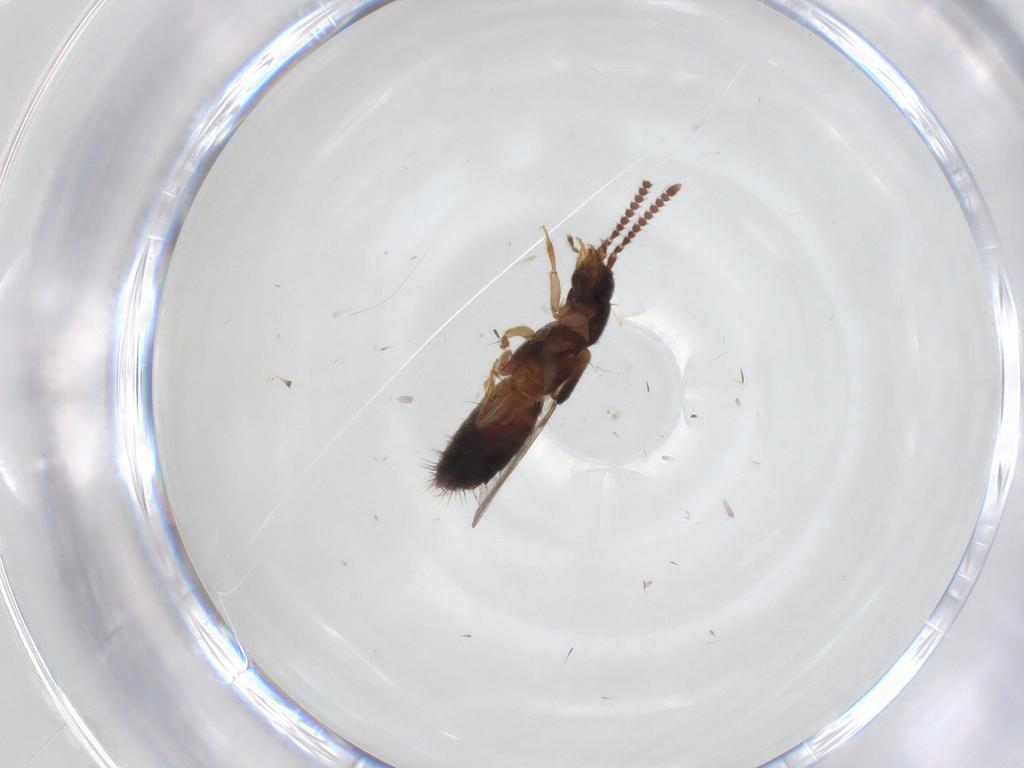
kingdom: Animalia
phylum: Arthropoda
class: Insecta
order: Coleoptera
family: Staphylinidae
